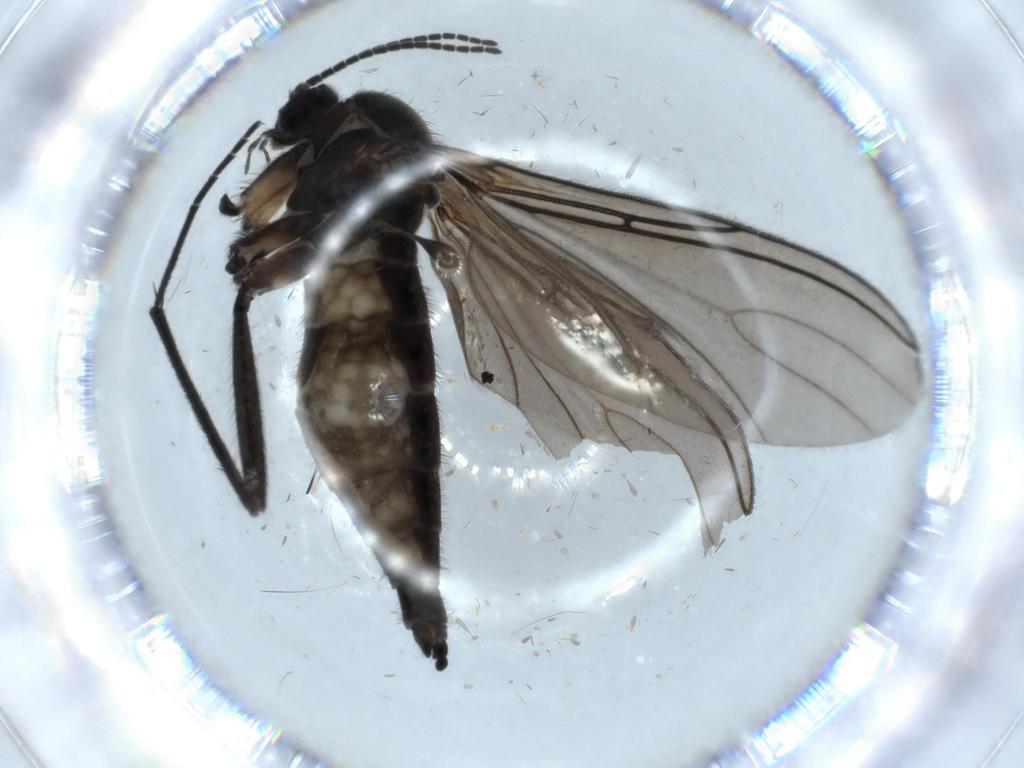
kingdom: Animalia
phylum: Arthropoda
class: Insecta
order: Diptera
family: Sciaridae
